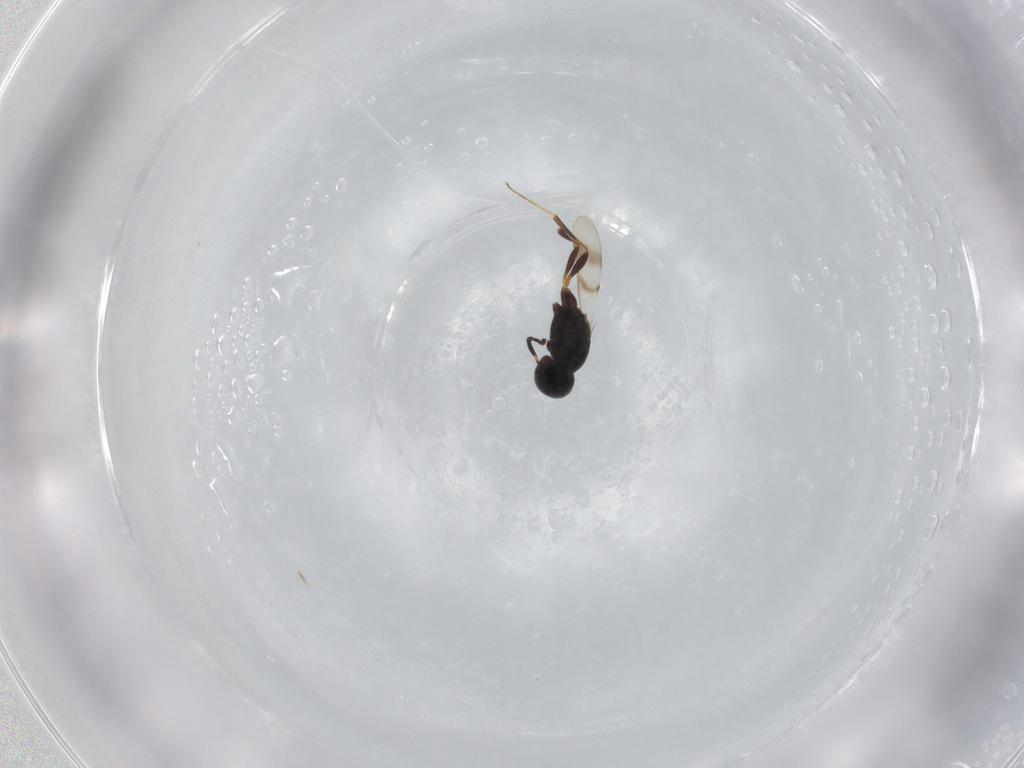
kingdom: Animalia
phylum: Arthropoda
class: Insecta
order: Hymenoptera
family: Scelionidae
